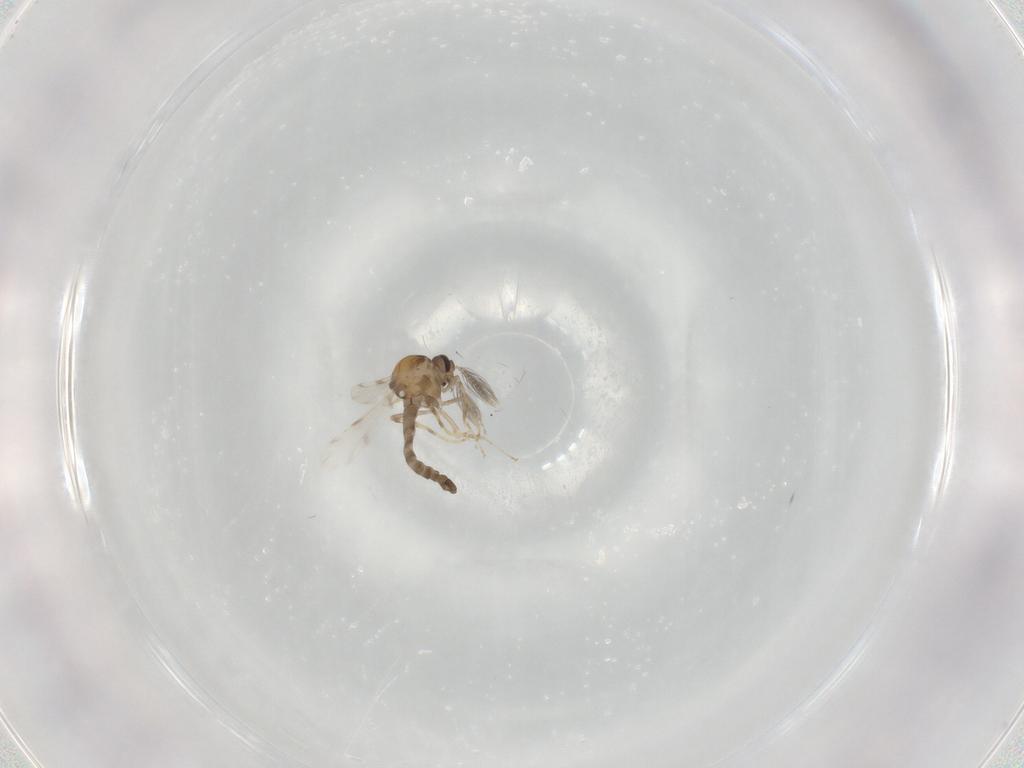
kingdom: Animalia
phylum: Arthropoda
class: Insecta
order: Diptera
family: Ceratopogonidae
